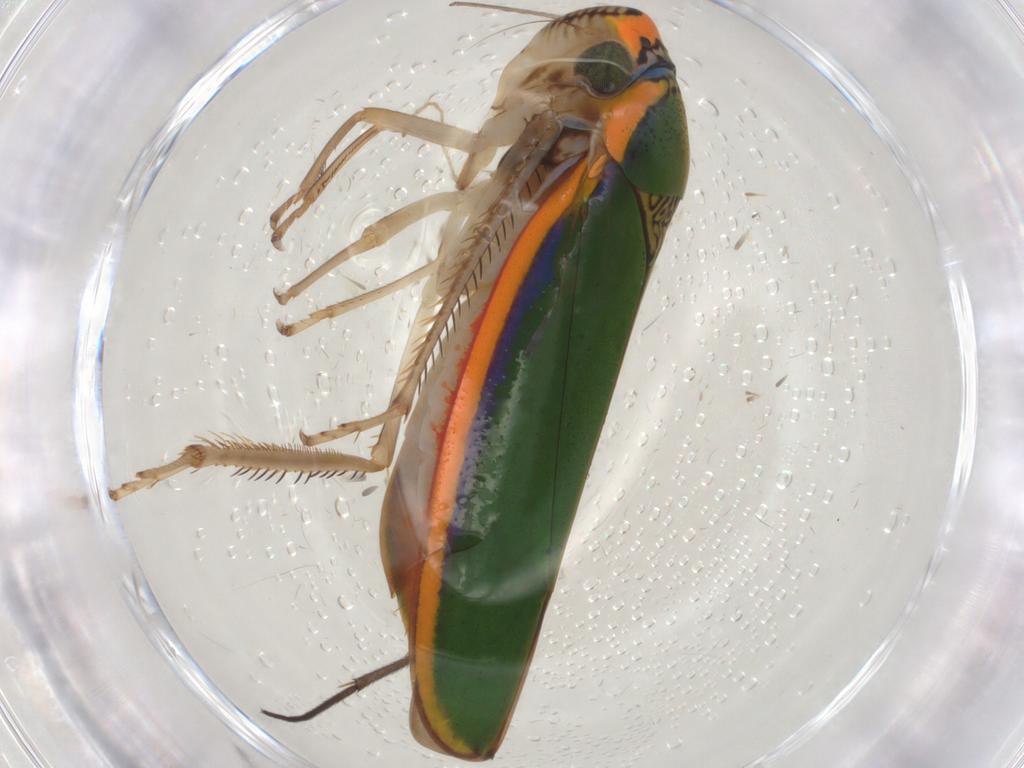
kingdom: Animalia
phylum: Arthropoda
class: Insecta
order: Hemiptera
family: Cicadellidae
